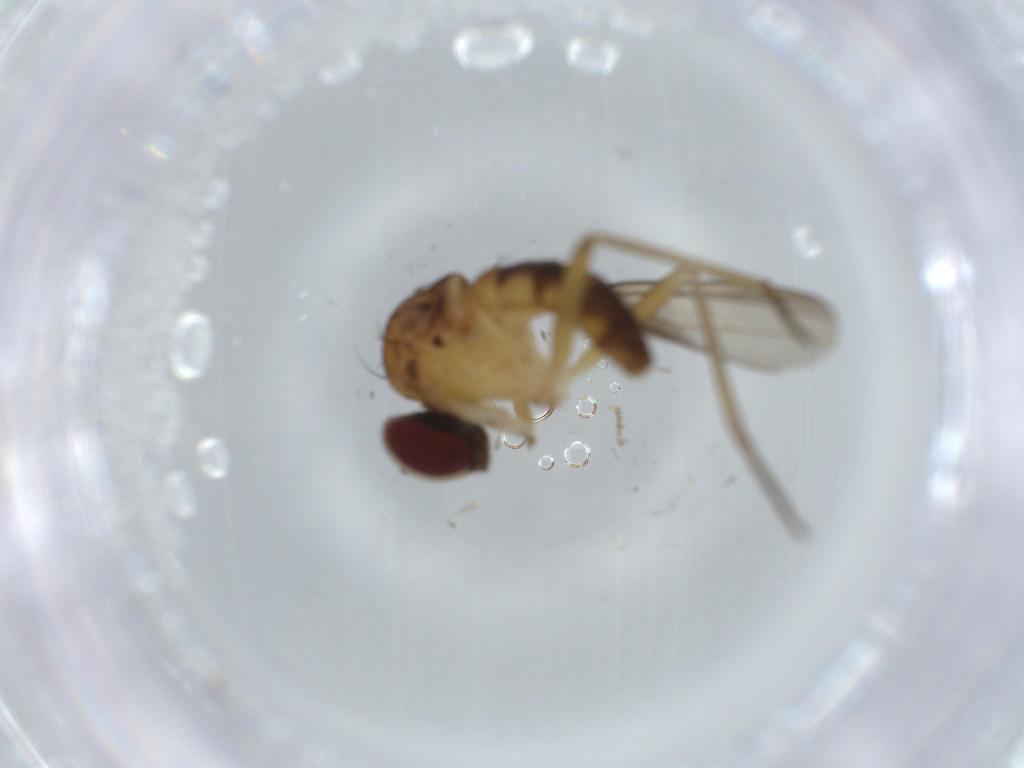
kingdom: Animalia
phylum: Arthropoda
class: Insecta
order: Diptera
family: Dolichopodidae
